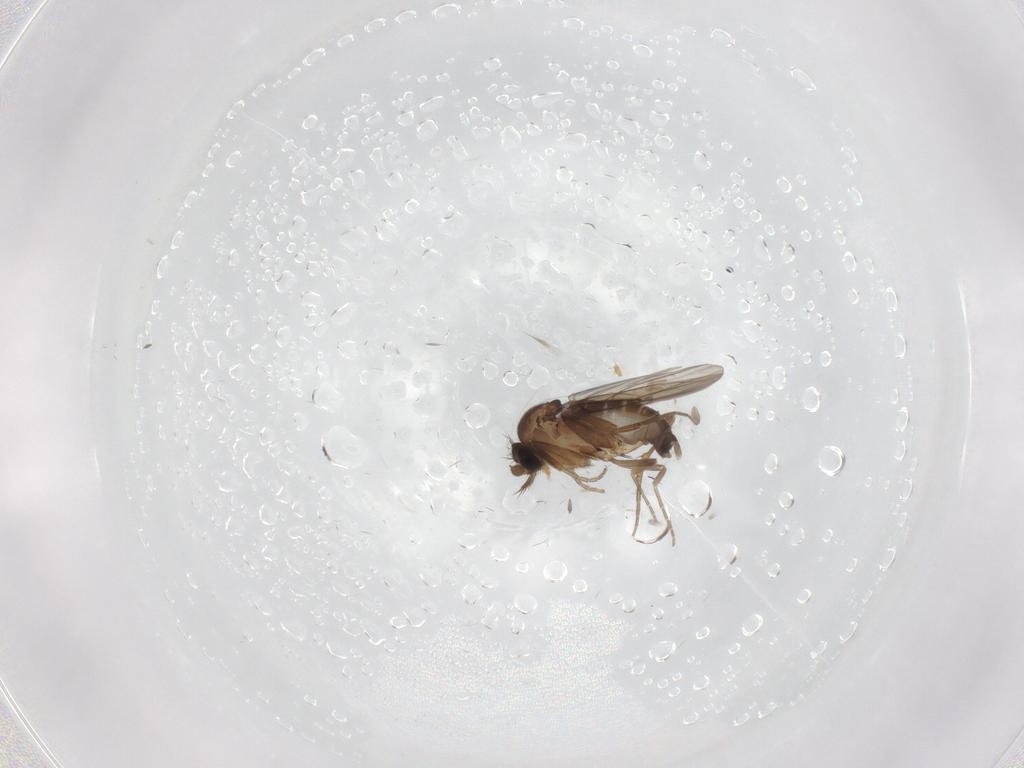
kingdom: Animalia
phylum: Arthropoda
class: Insecta
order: Diptera
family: Phoridae
